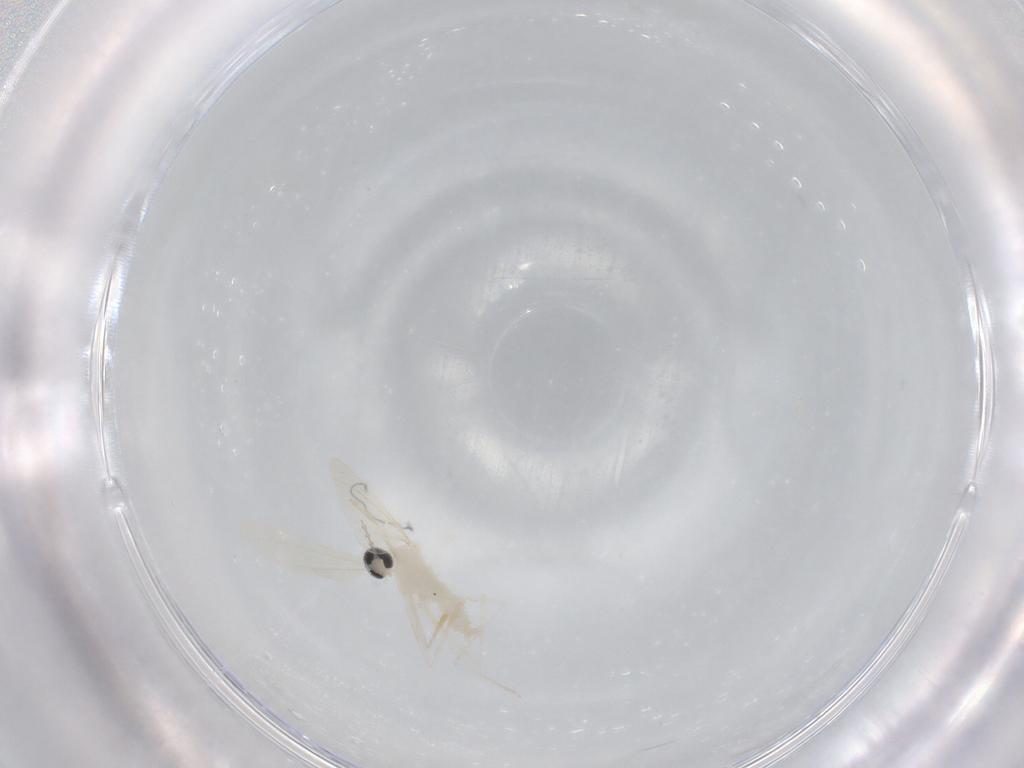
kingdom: Animalia
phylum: Arthropoda
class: Insecta
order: Diptera
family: Cecidomyiidae
